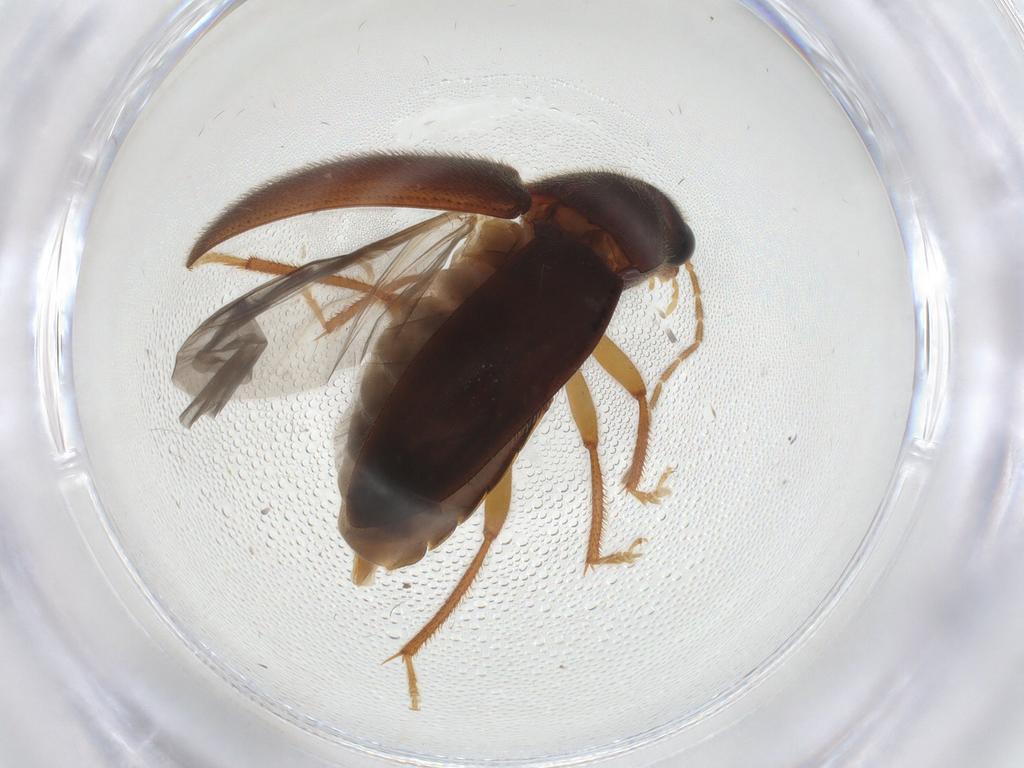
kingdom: Animalia
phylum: Arthropoda
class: Insecta
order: Coleoptera
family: Ptilodactylidae
